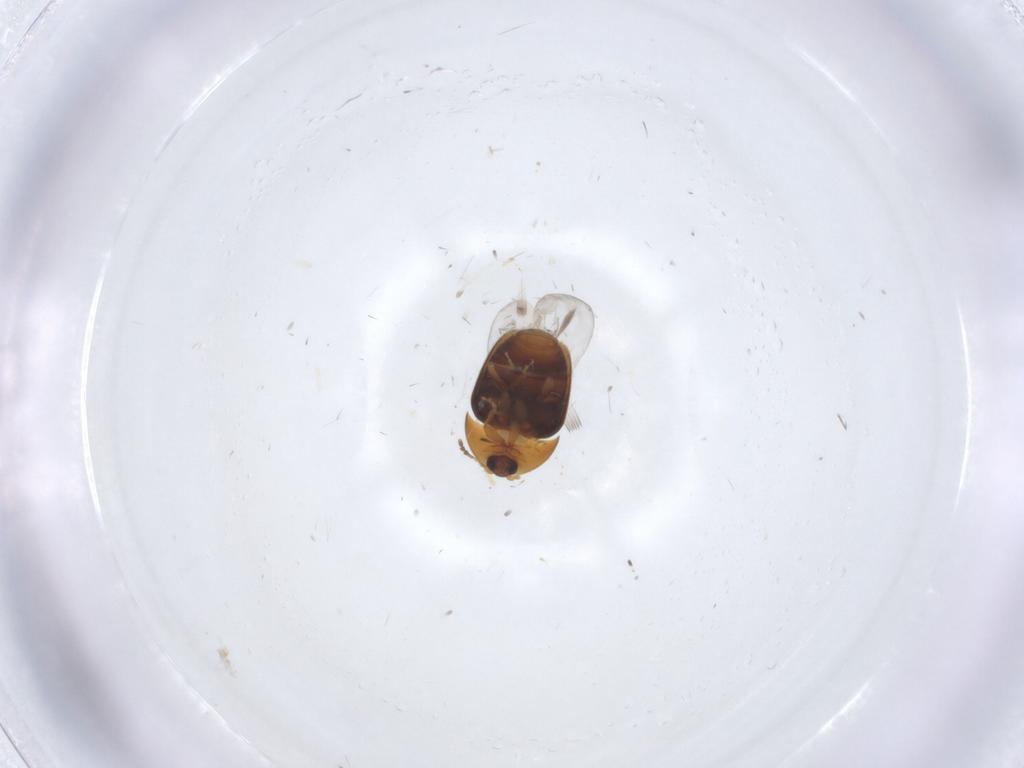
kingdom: Animalia
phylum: Arthropoda
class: Insecta
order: Coleoptera
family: Corylophidae
